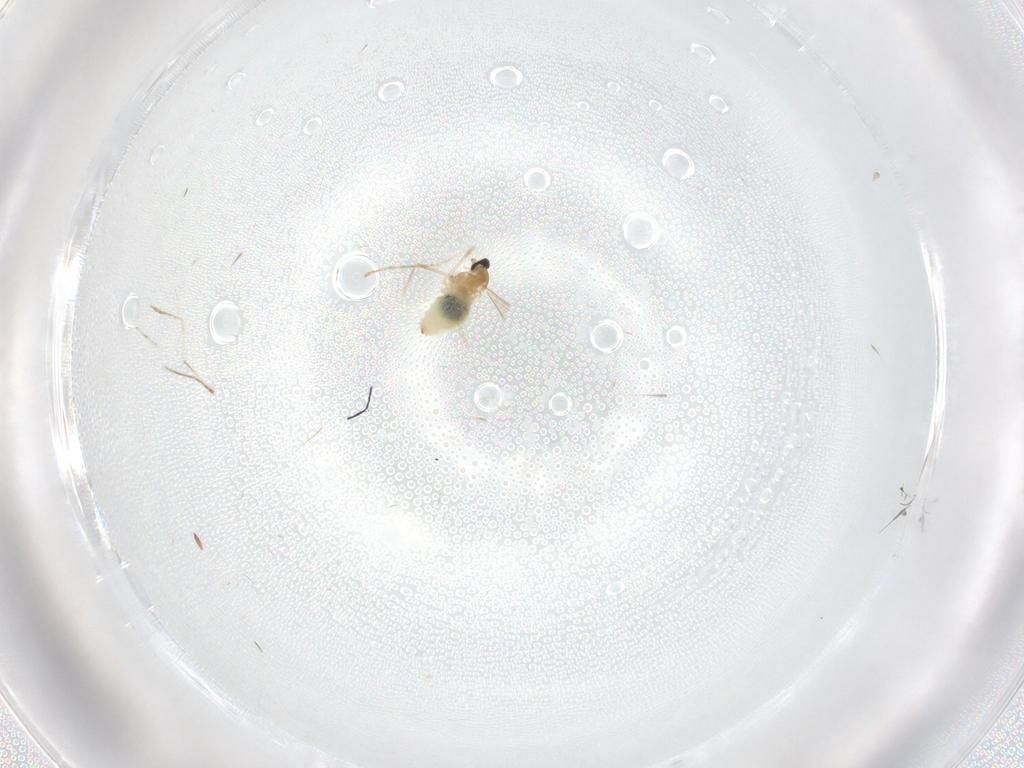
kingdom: Animalia
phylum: Arthropoda
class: Insecta
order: Diptera
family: Cecidomyiidae
